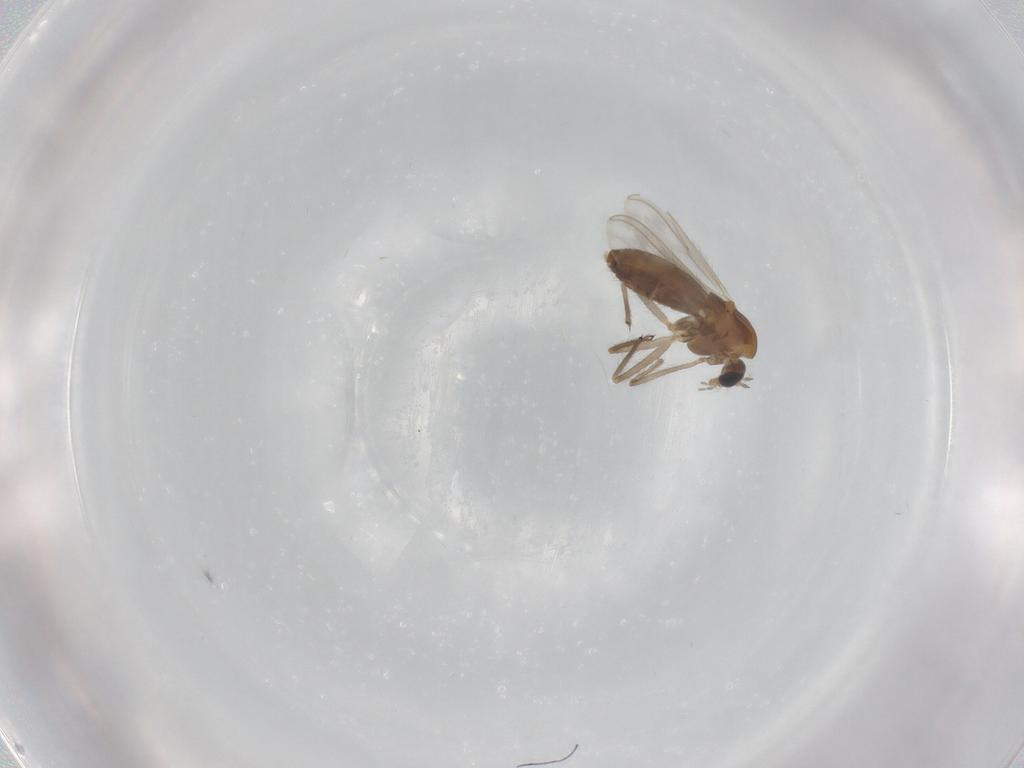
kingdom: Animalia
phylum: Arthropoda
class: Insecta
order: Diptera
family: Chironomidae
